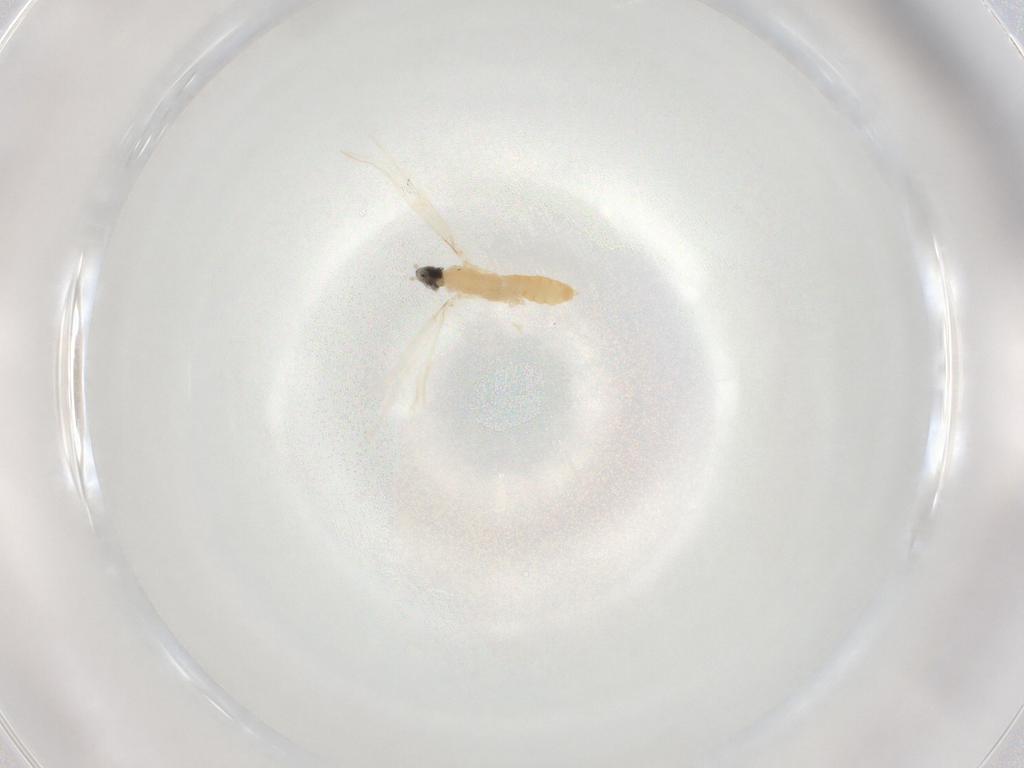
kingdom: Animalia
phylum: Arthropoda
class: Insecta
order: Diptera
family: Cecidomyiidae
